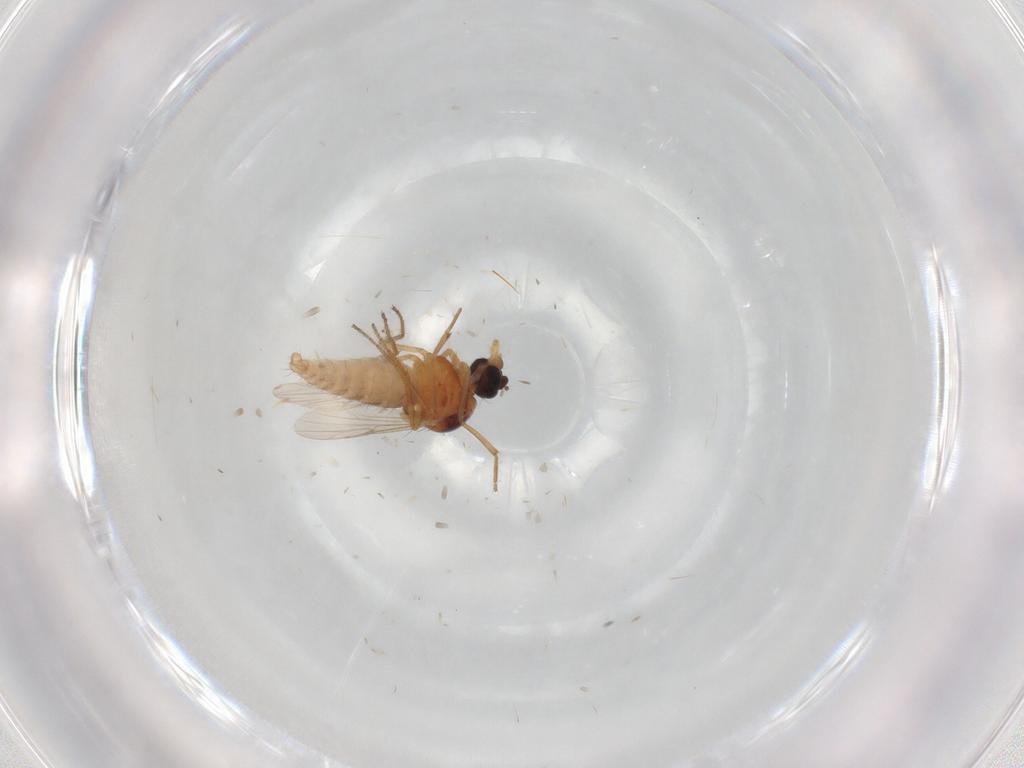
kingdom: Animalia
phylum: Arthropoda
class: Insecta
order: Diptera
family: Ceratopogonidae
